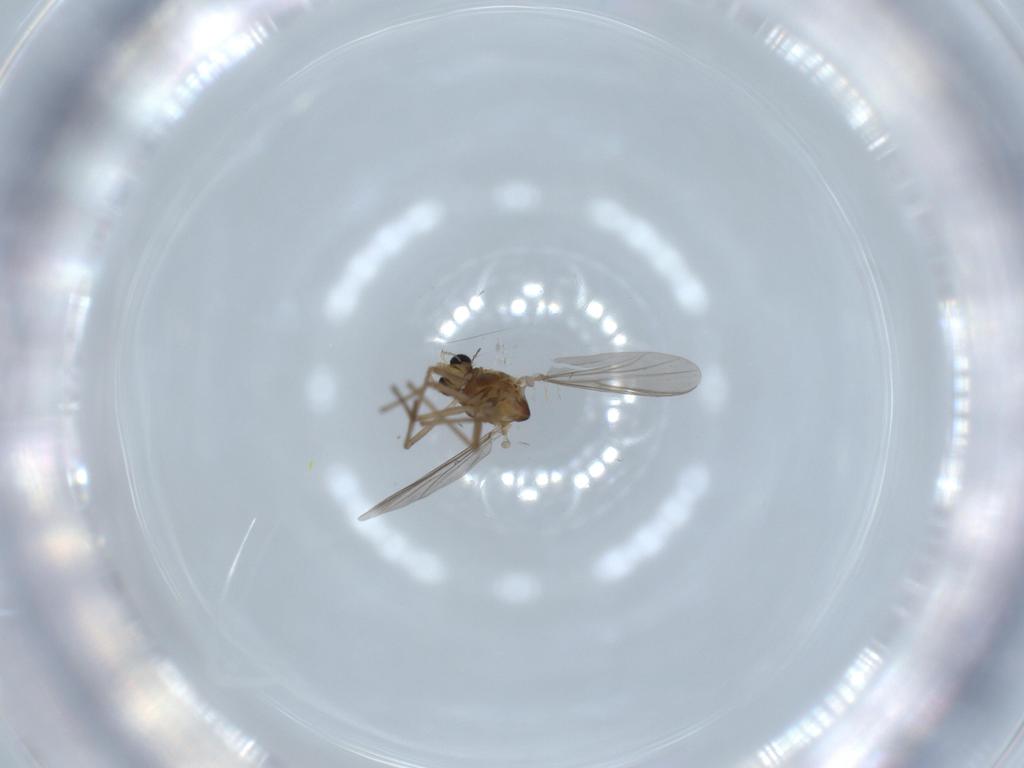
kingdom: Animalia
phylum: Arthropoda
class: Insecta
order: Diptera
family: Chironomidae
